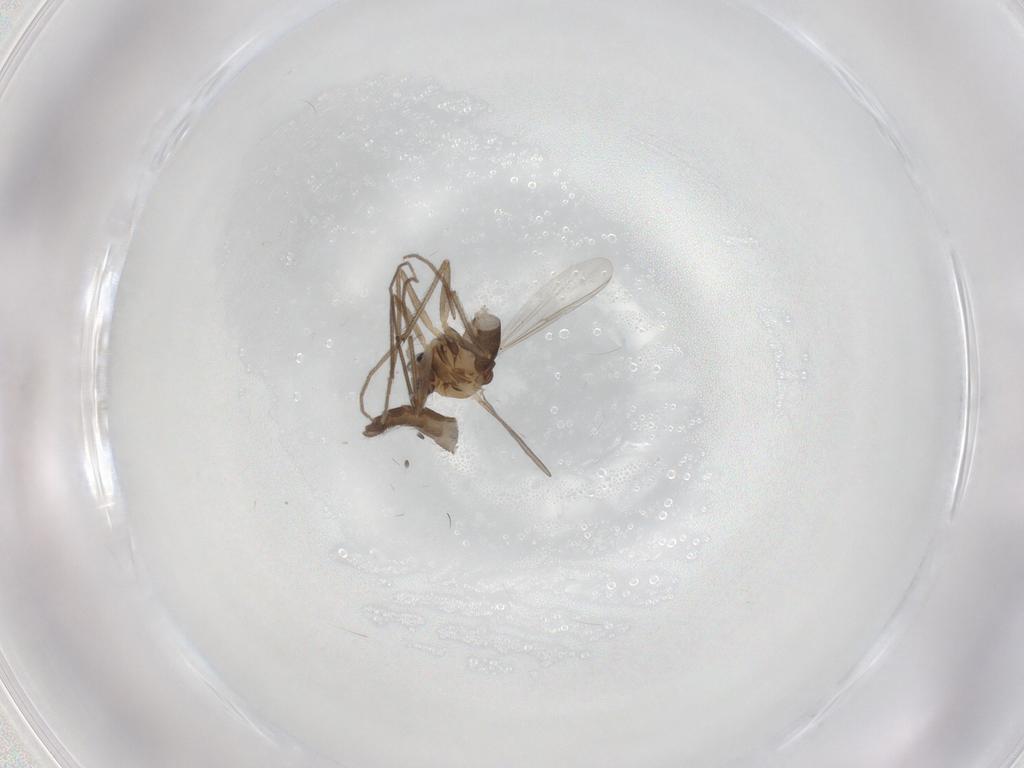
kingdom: Animalia
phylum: Arthropoda
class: Insecta
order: Diptera
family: Chironomidae
